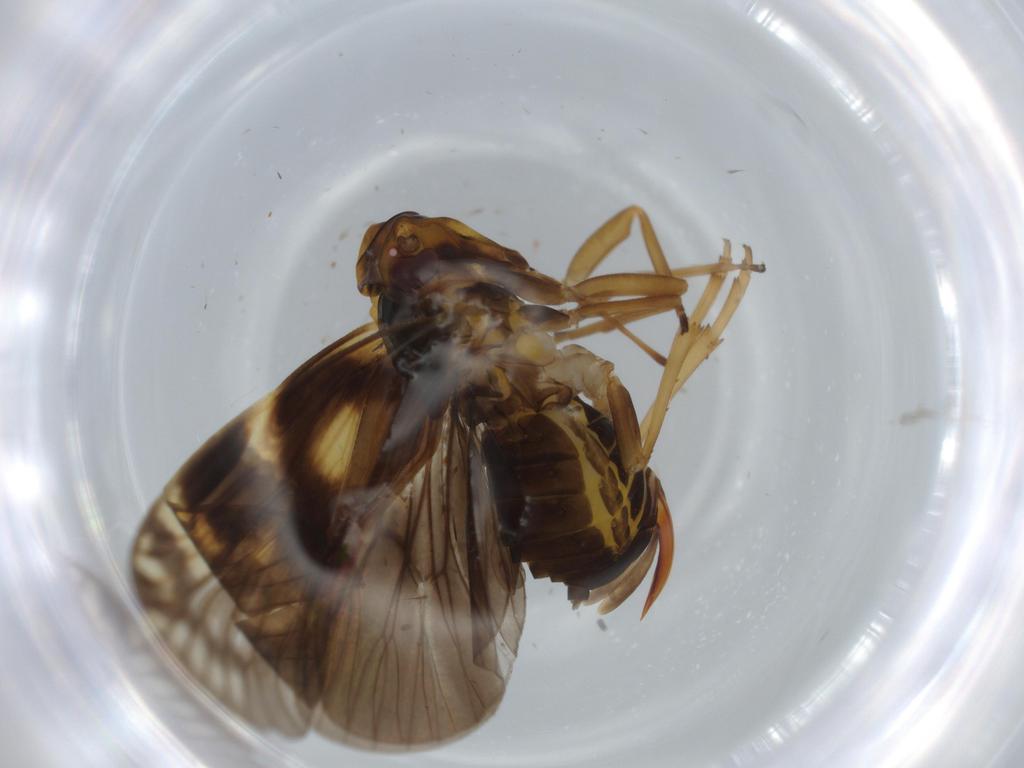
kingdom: Animalia
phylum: Arthropoda
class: Insecta
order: Hemiptera
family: Cixiidae
